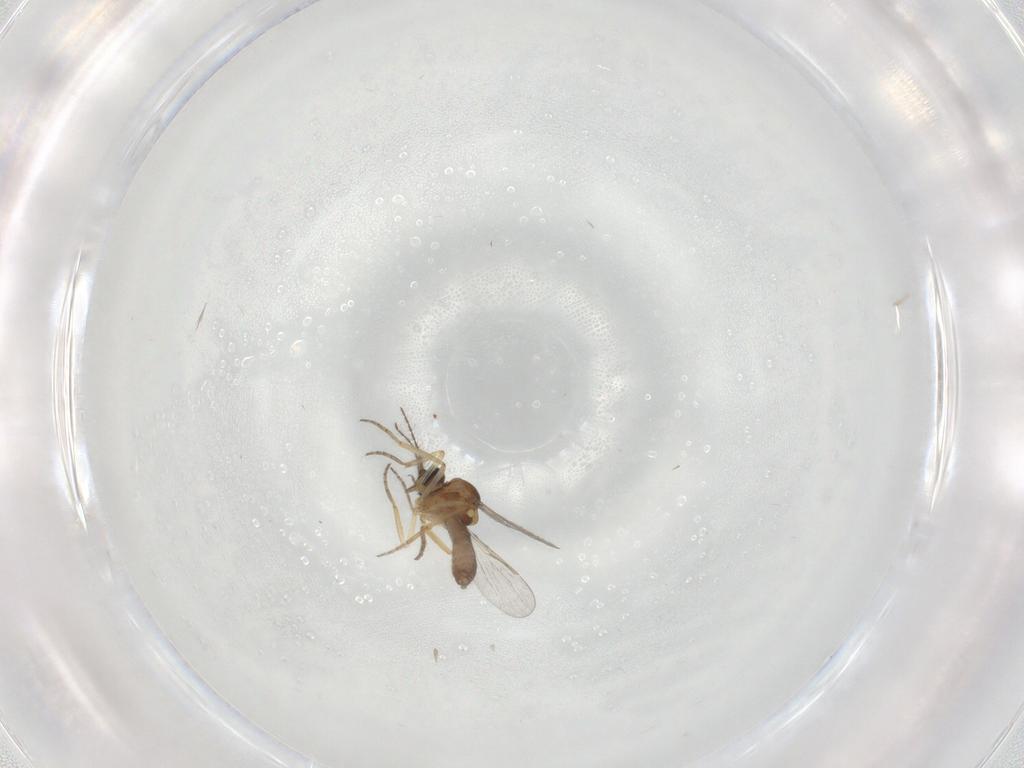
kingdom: Animalia
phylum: Arthropoda
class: Insecta
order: Diptera
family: Ceratopogonidae
